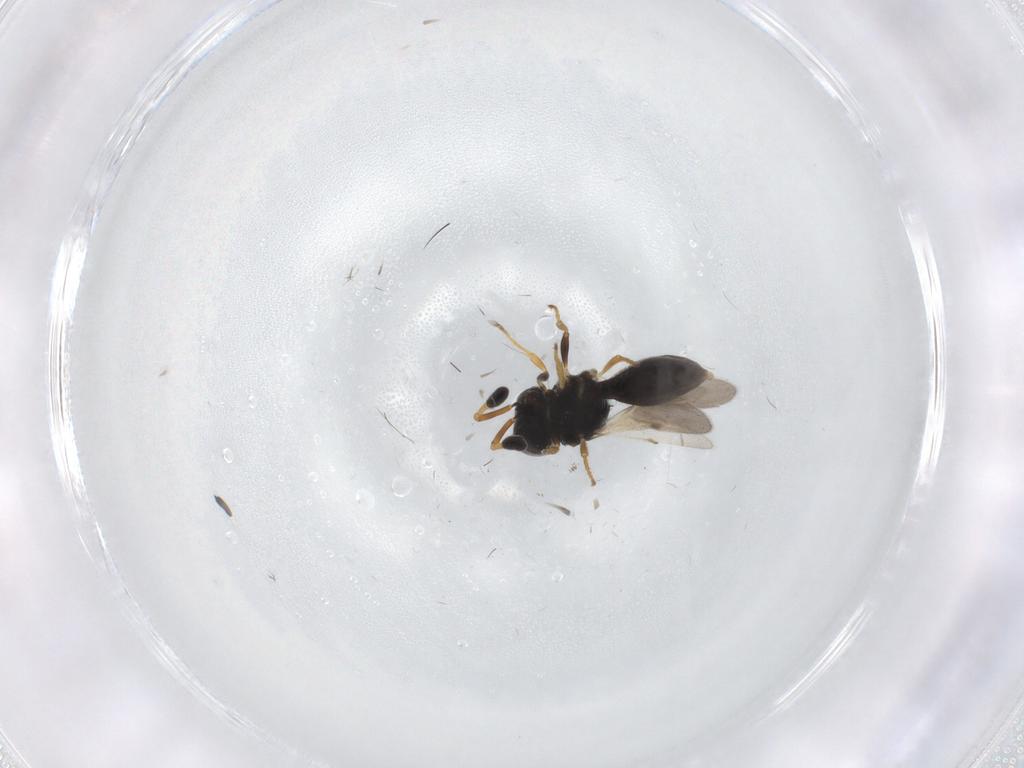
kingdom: Animalia
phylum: Arthropoda
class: Insecta
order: Hymenoptera
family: Scelionidae
